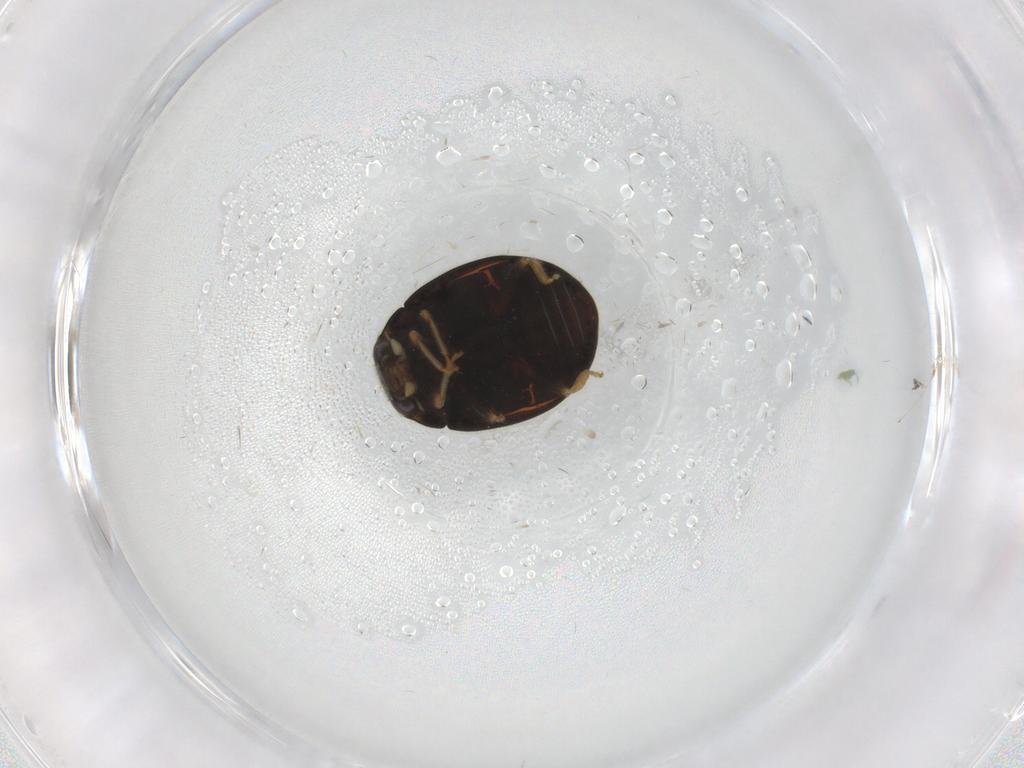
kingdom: Animalia
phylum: Arthropoda
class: Insecta
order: Coleoptera
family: Coccinellidae
